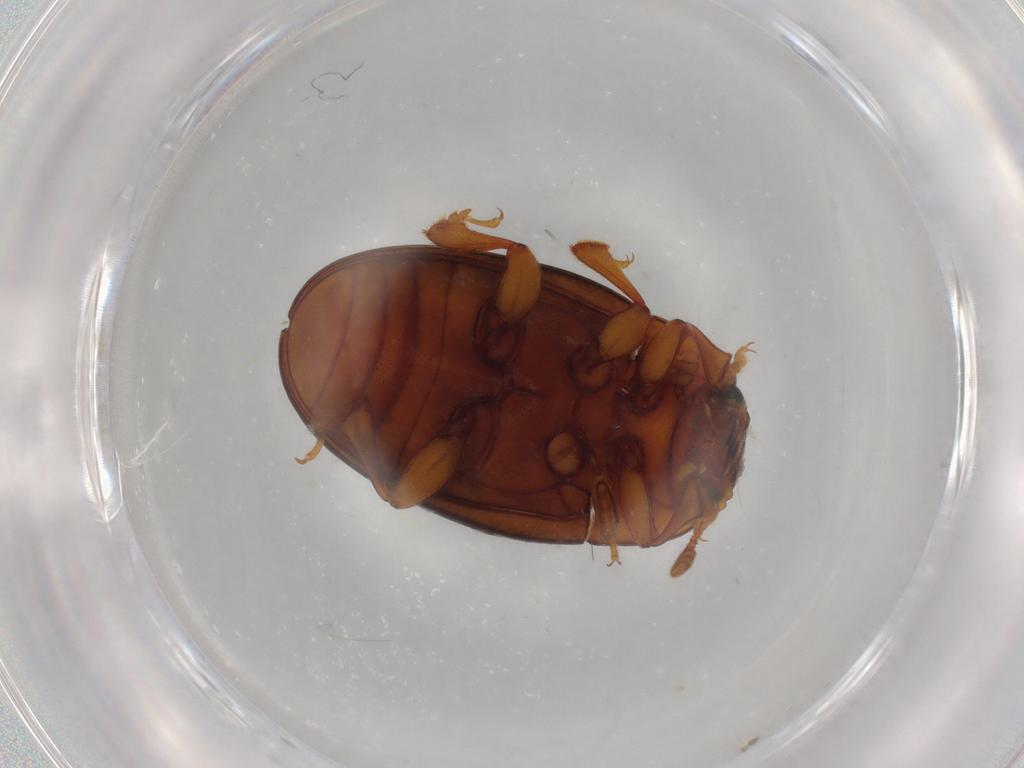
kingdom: Animalia
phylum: Arthropoda
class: Insecta
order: Coleoptera
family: Erotylidae
